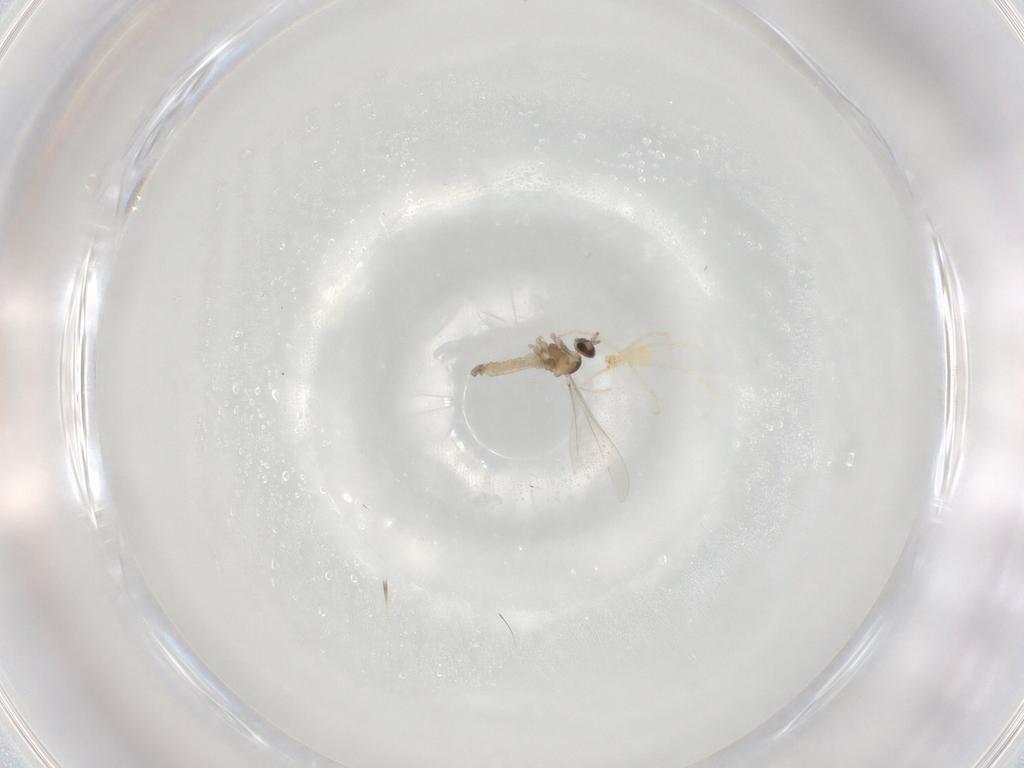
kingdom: Animalia
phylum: Arthropoda
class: Insecta
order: Diptera
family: Cecidomyiidae
